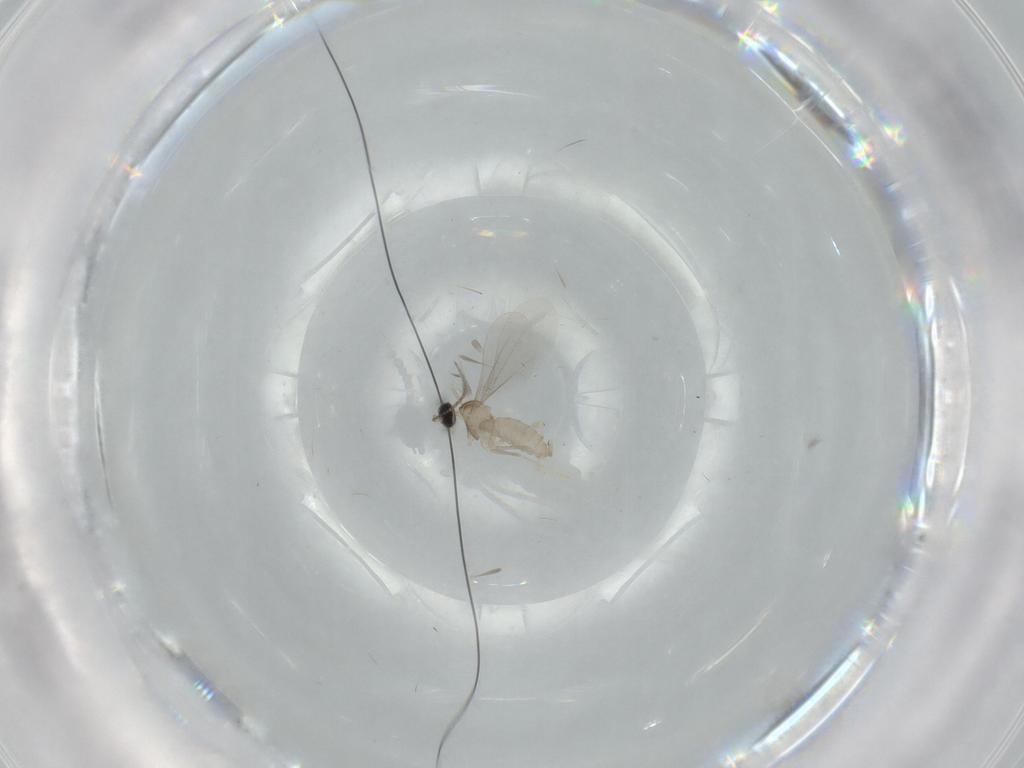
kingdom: Animalia
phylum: Arthropoda
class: Insecta
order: Diptera
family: Cecidomyiidae
